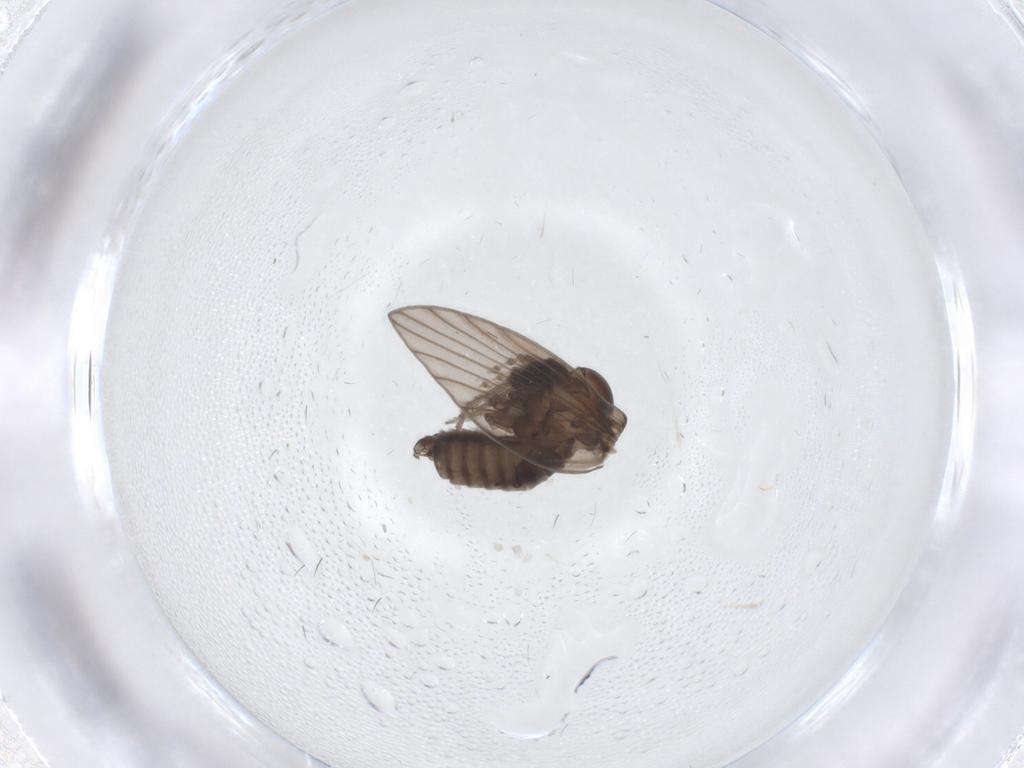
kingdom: Animalia
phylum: Arthropoda
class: Insecta
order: Diptera
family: Psychodidae
